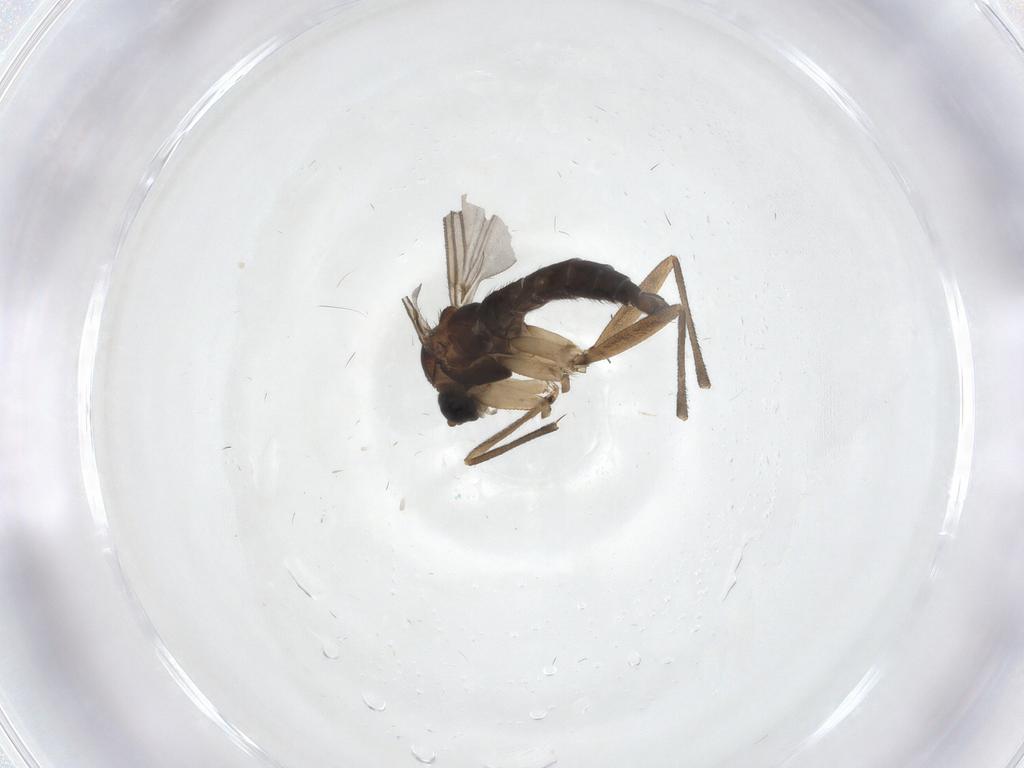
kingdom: Animalia
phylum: Arthropoda
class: Insecta
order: Diptera
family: Sciaridae
